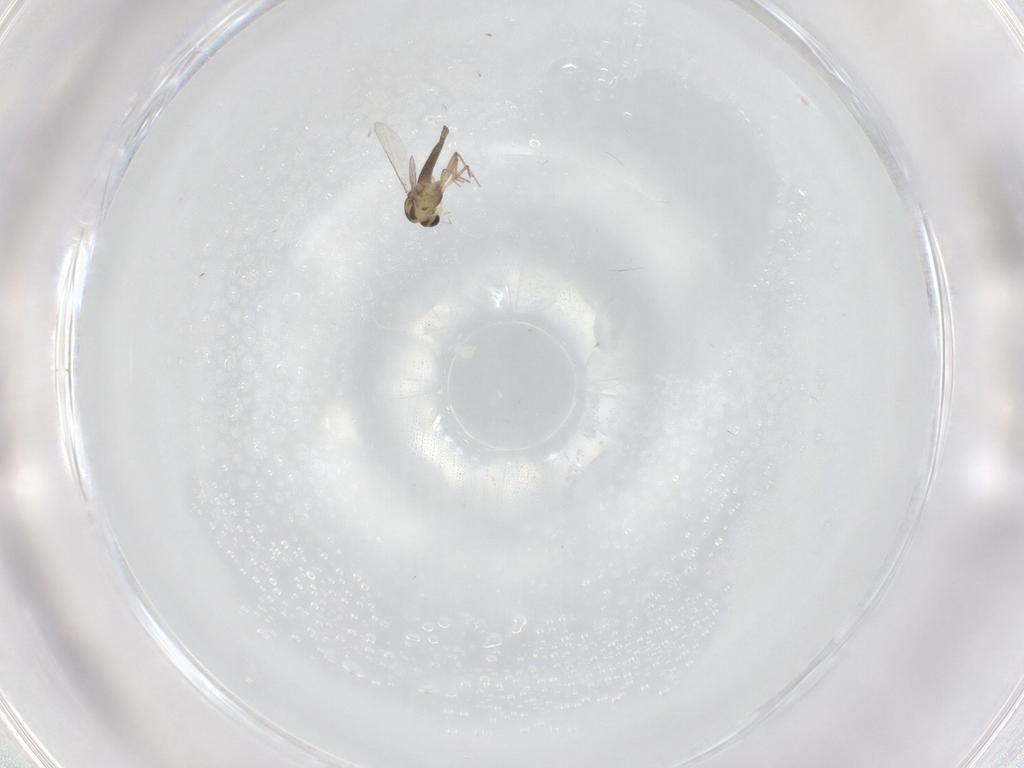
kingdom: Animalia
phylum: Arthropoda
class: Insecta
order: Diptera
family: Chironomidae
